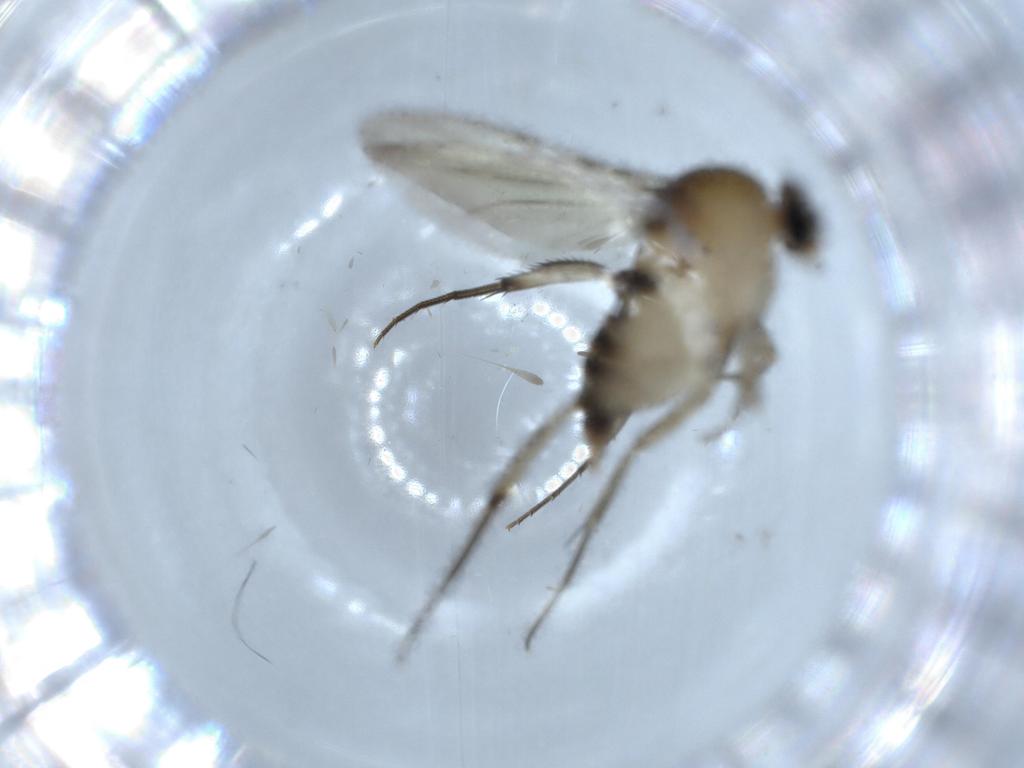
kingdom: Animalia
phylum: Arthropoda
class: Insecta
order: Diptera
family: Phoridae
